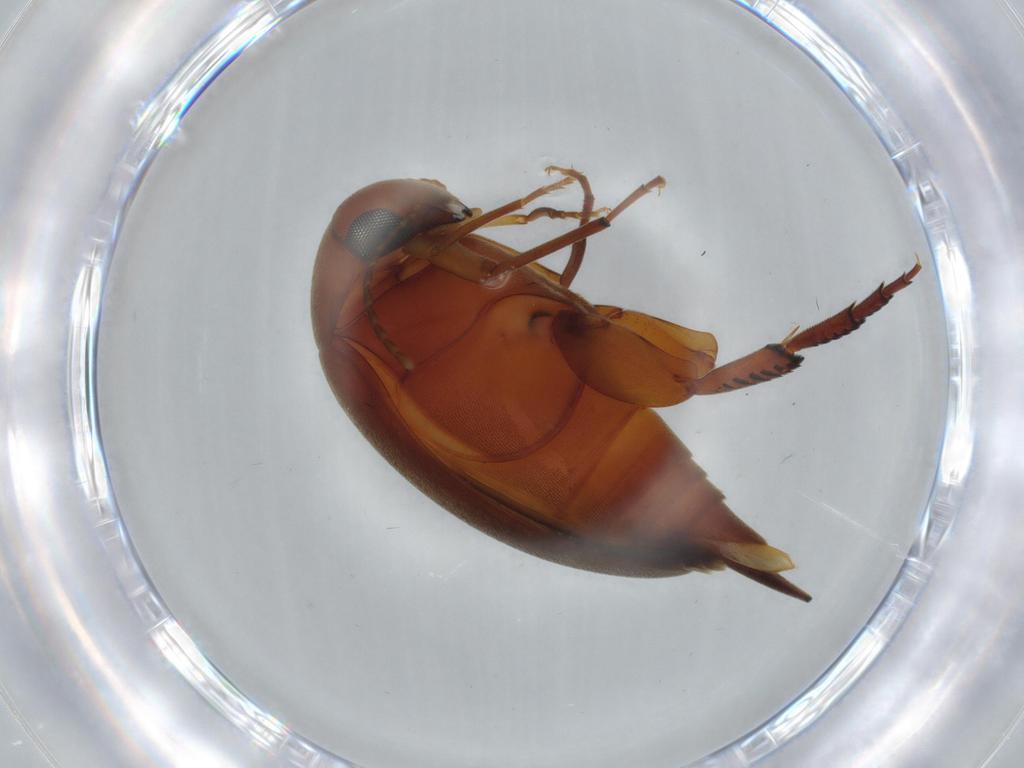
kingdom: Animalia
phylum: Arthropoda
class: Insecta
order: Coleoptera
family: Mordellidae
